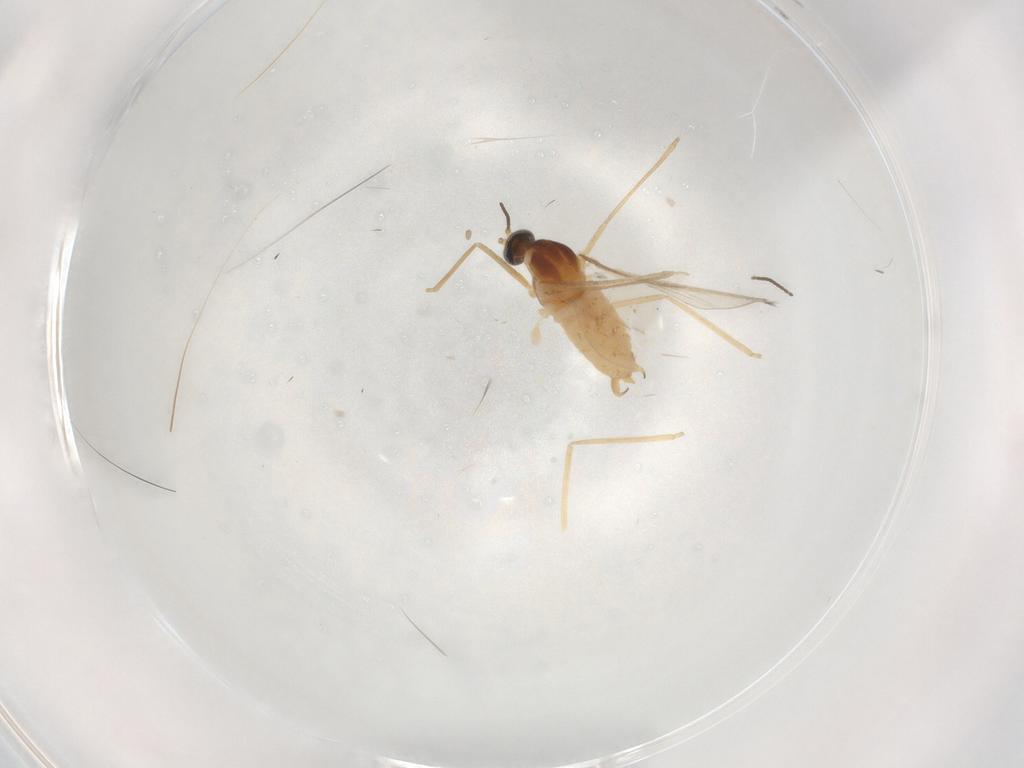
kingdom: Animalia
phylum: Arthropoda
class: Insecta
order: Diptera
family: Cecidomyiidae
